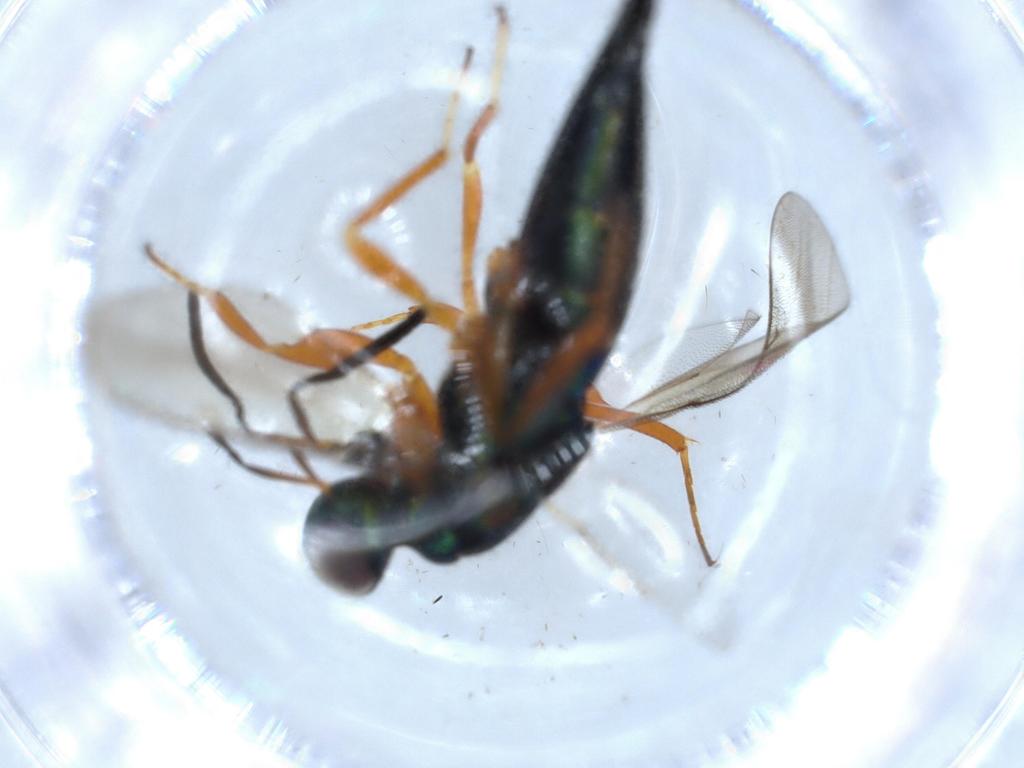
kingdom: Animalia
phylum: Arthropoda
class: Insecta
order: Hymenoptera
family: Lyciscidae
